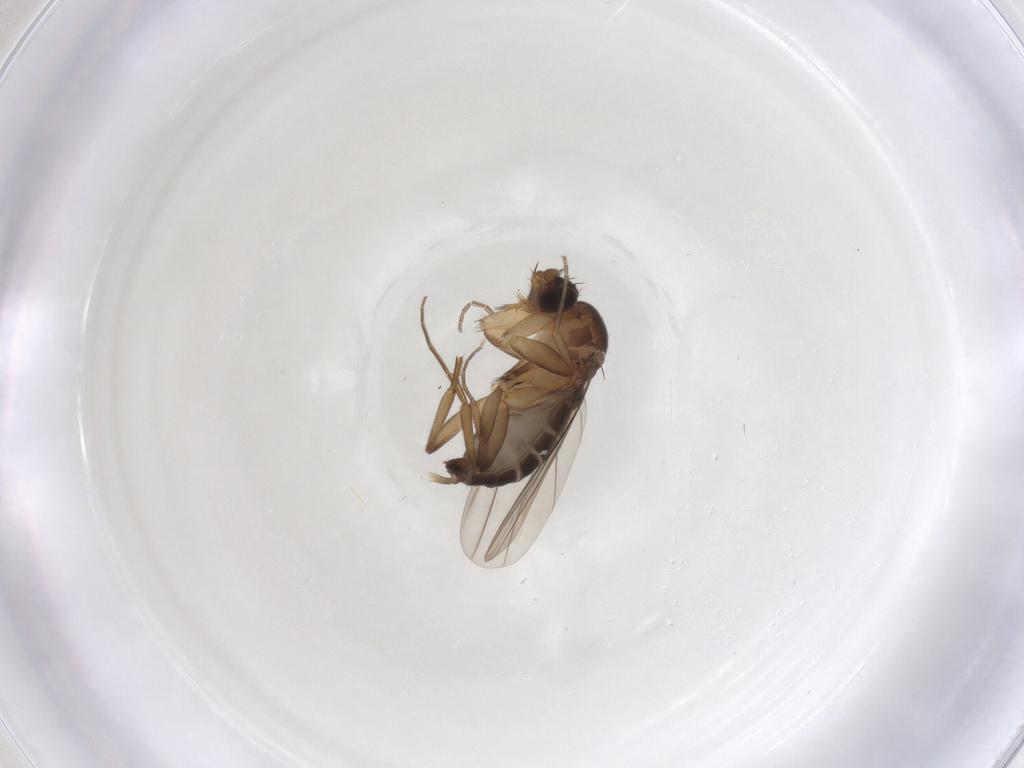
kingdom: Animalia
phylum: Arthropoda
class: Insecta
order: Diptera
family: Phoridae
